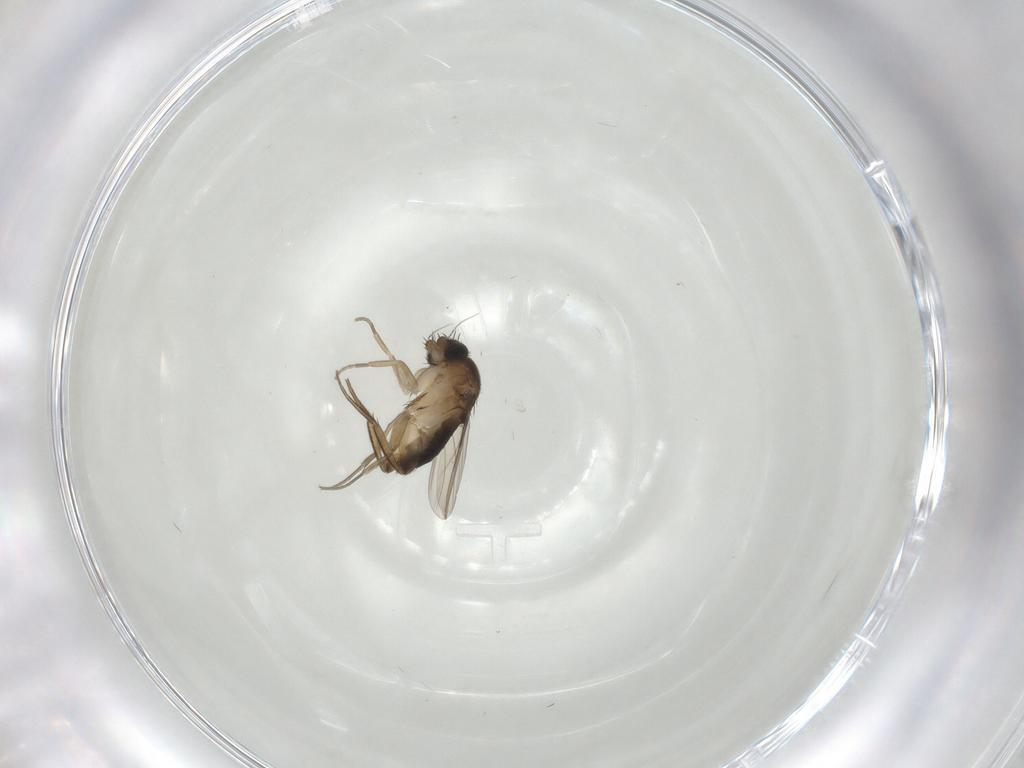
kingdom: Animalia
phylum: Arthropoda
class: Insecta
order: Diptera
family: Phoridae
